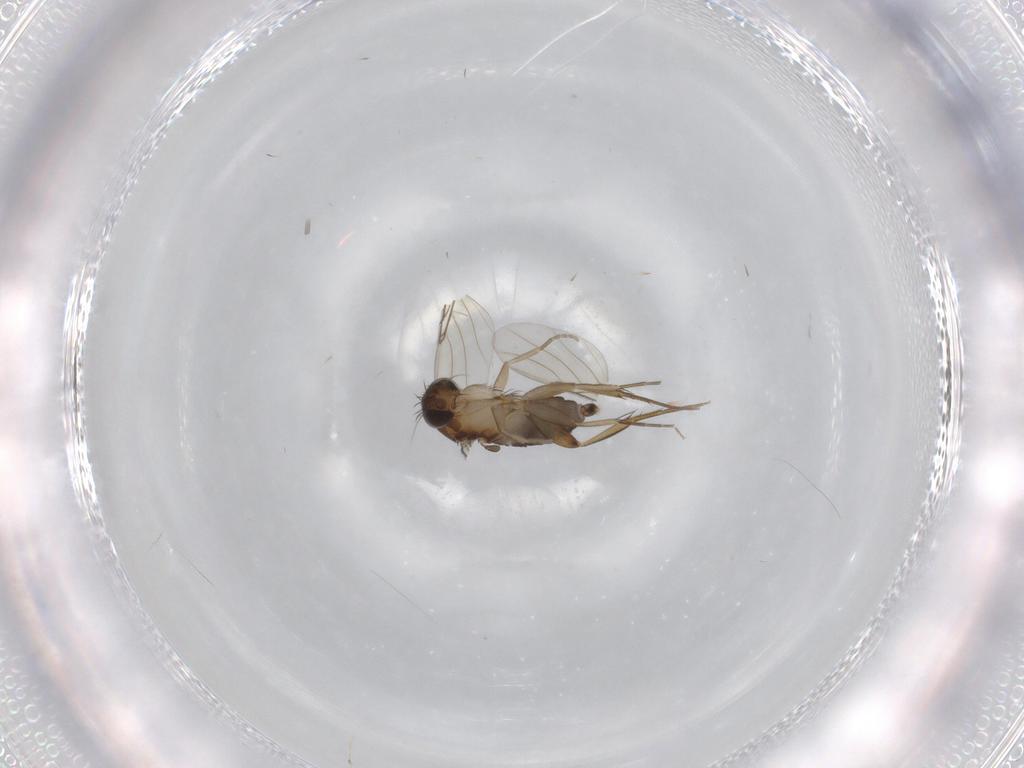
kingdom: Animalia
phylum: Arthropoda
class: Insecta
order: Diptera
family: Phoridae
